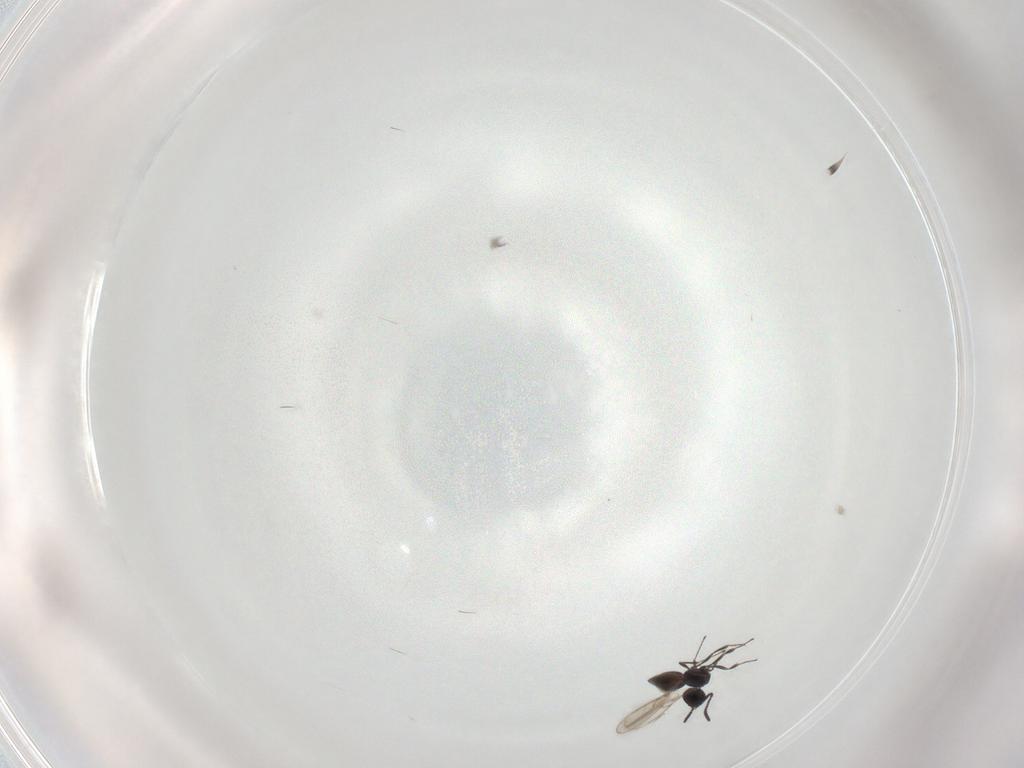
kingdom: Animalia
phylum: Arthropoda
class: Insecta
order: Hymenoptera
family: Scelionidae
